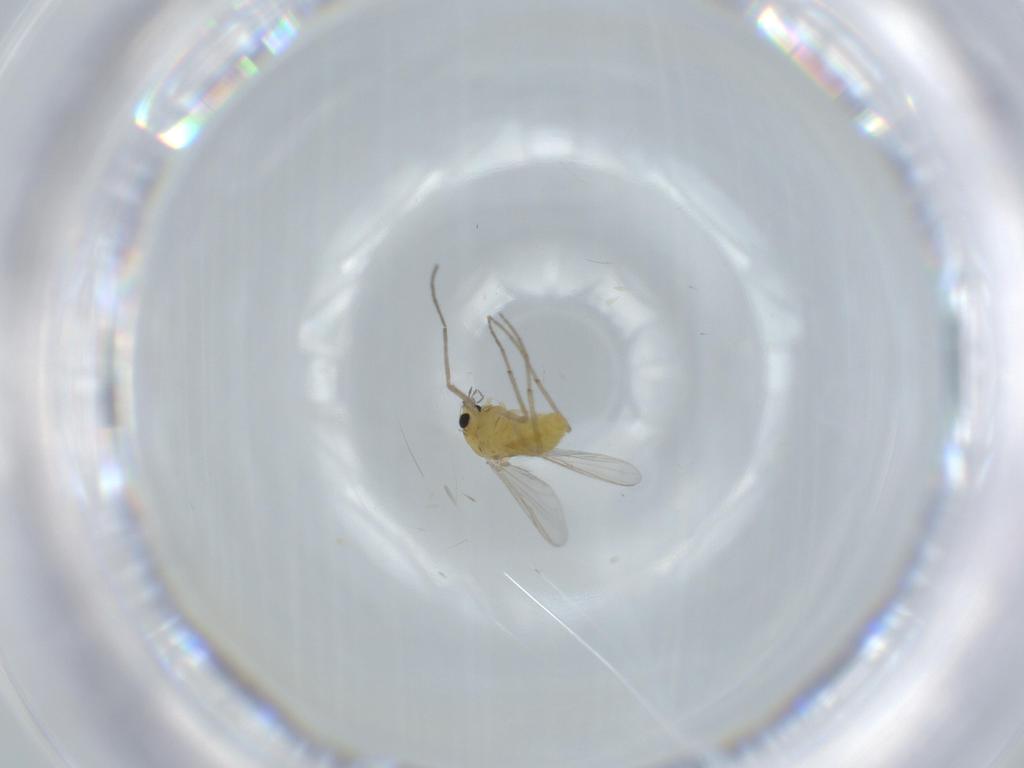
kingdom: Animalia
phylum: Arthropoda
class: Insecta
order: Diptera
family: Chironomidae
